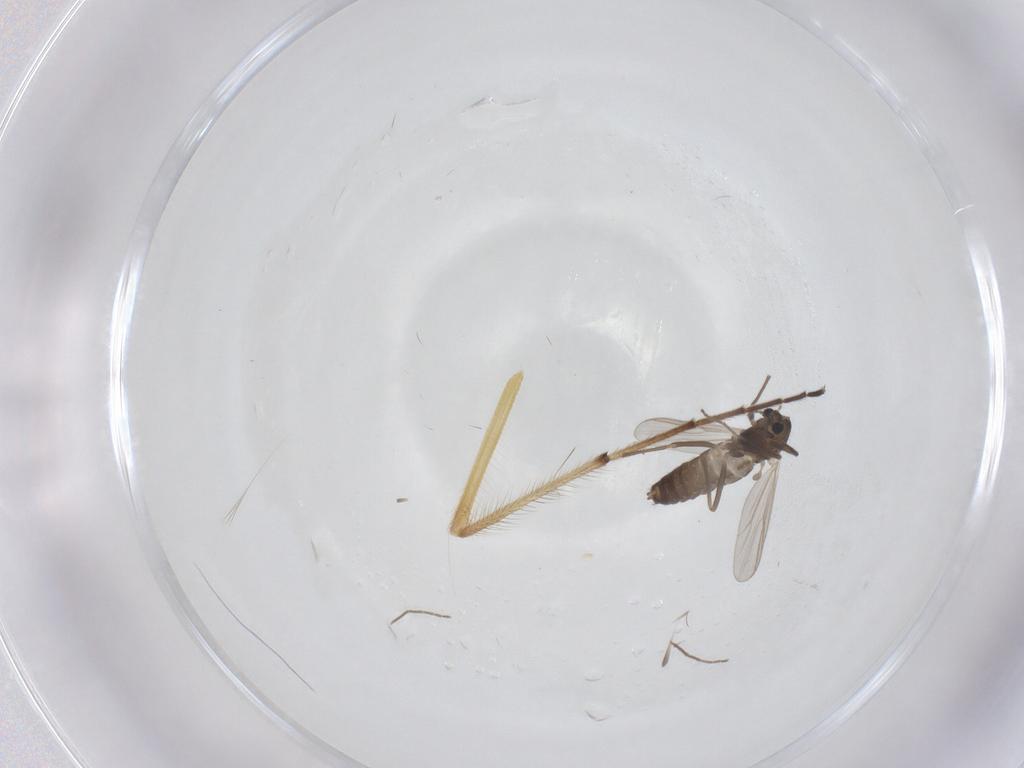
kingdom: Animalia
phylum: Arthropoda
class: Insecta
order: Diptera
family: Chironomidae
